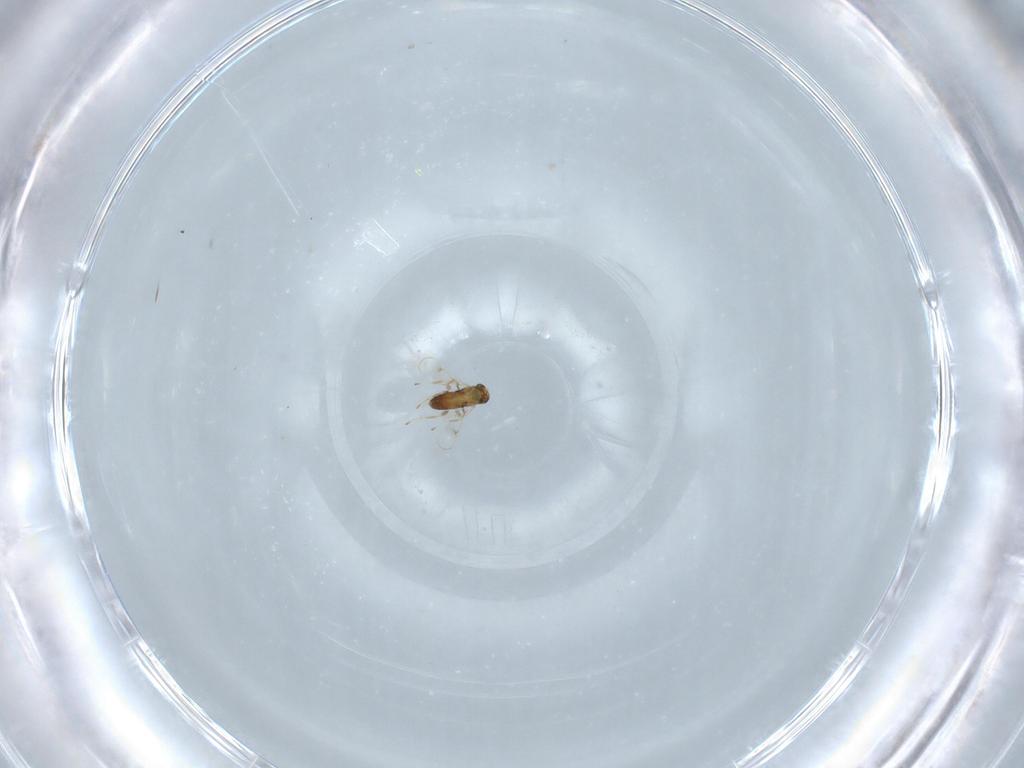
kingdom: Animalia
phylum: Arthropoda
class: Insecta
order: Hymenoptera
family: Trichogrammatidae
